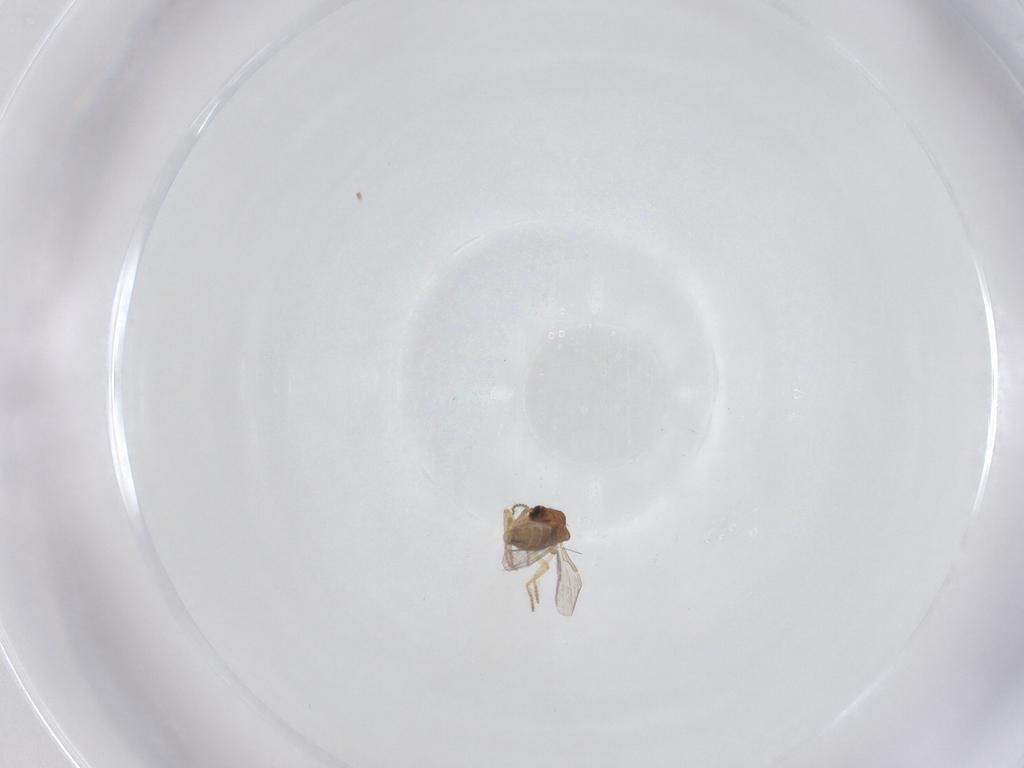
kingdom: Animalia
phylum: Arthropoda
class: Insecta
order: Diptera
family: Ceratopogonidae
